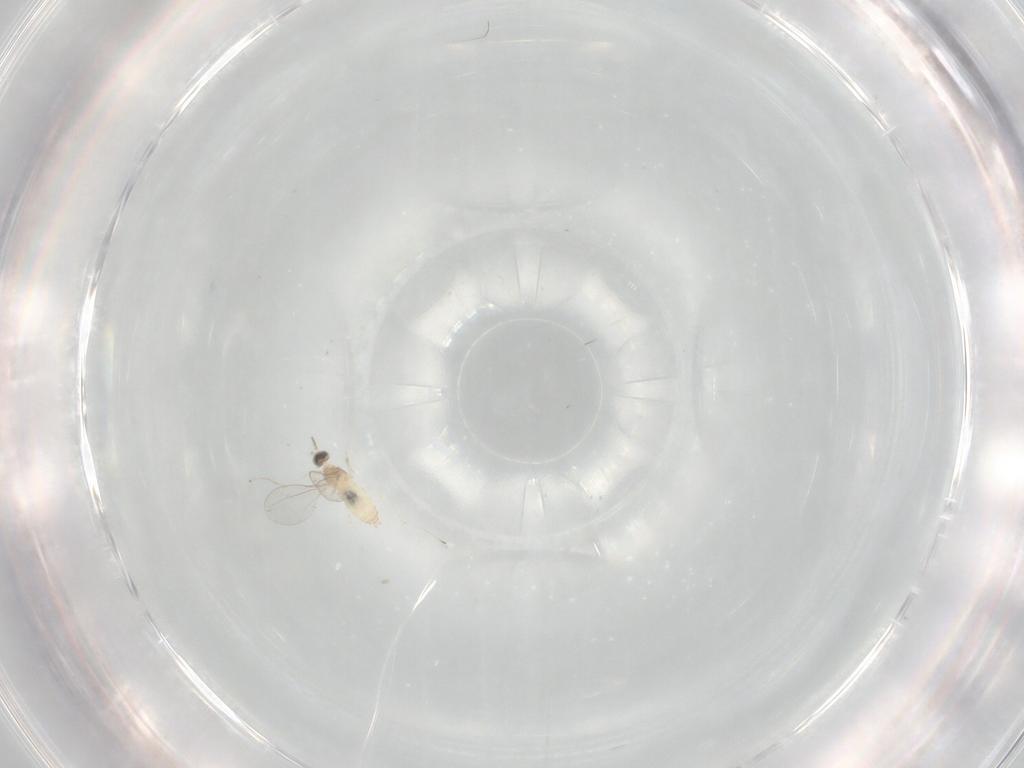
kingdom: Animalia
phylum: Arthropoda
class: Insecta
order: Diptera
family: Cecidomyiidae
